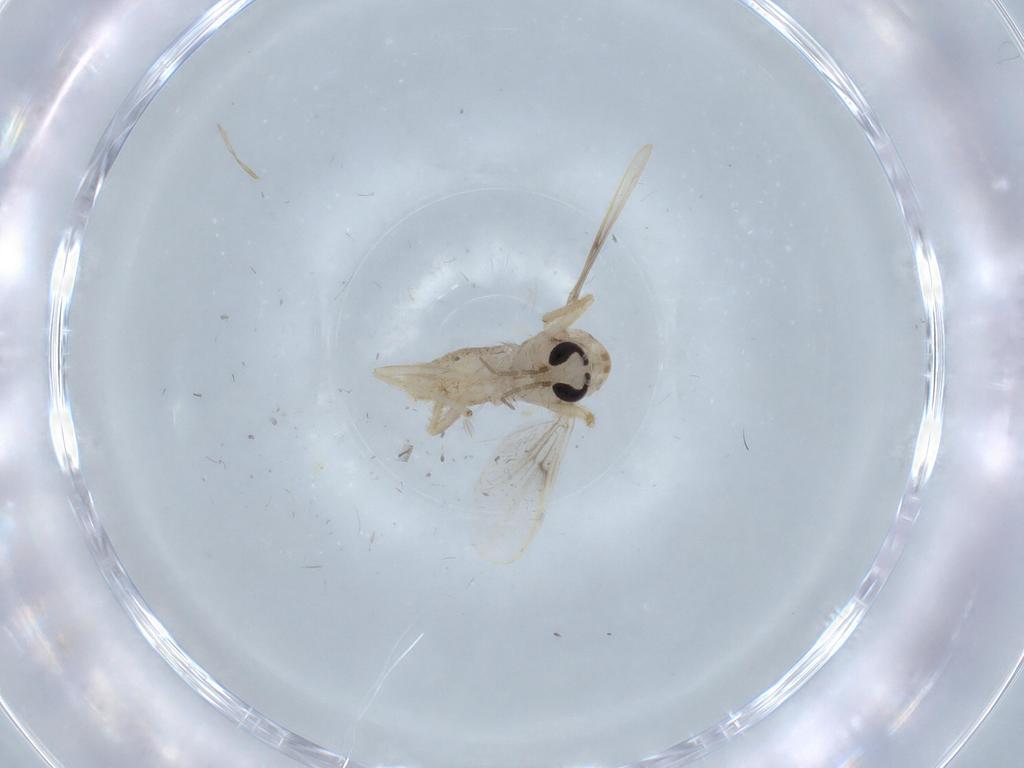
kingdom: Animalia
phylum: Arthropoda
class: Insecta
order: Diptera
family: Chironomidae
